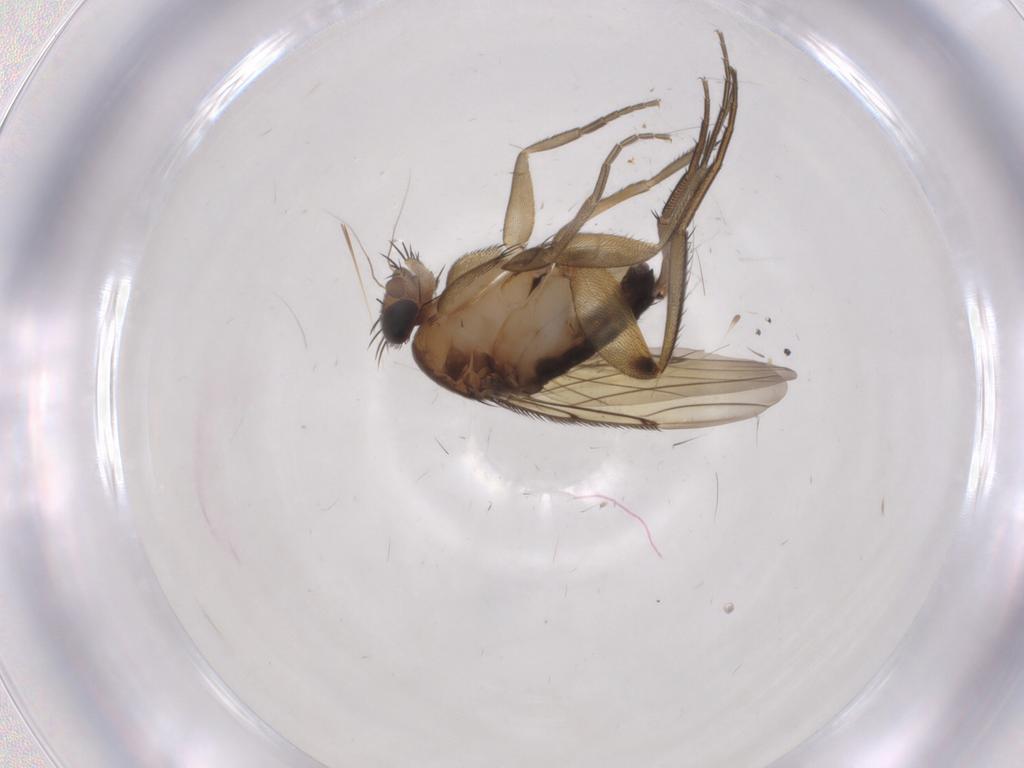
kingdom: Animalia
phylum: Arthropoda
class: Insecta
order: Diptera
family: Phoridae
